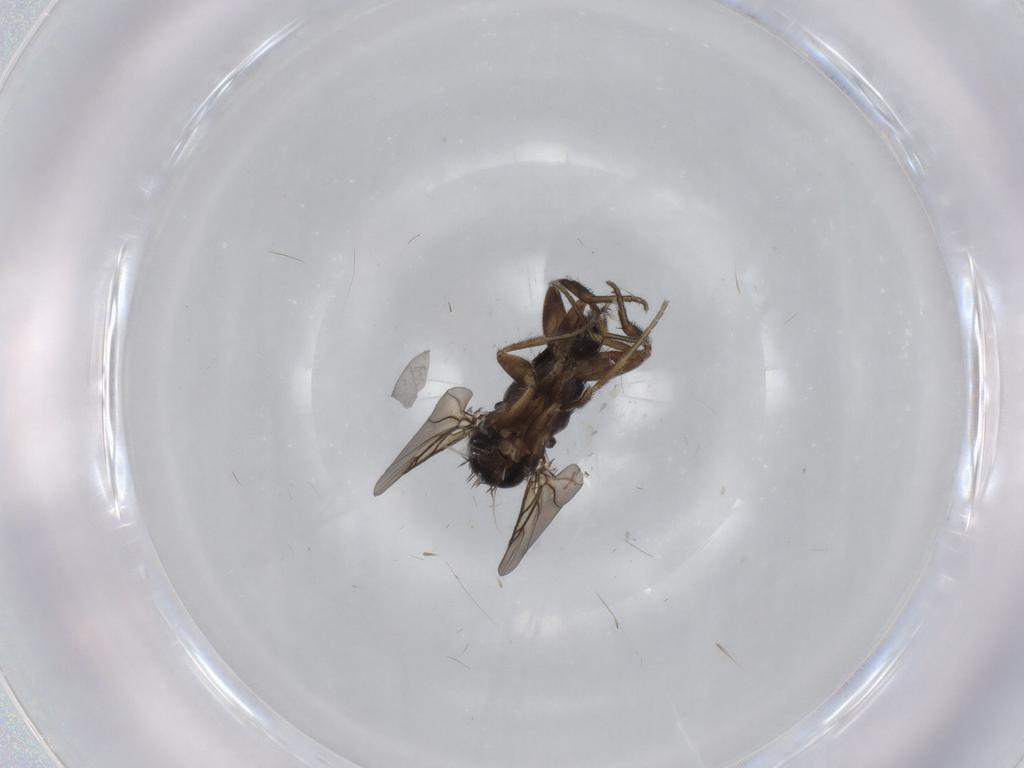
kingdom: Animalia
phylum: Arthropoda
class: Insecta
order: Diptera
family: Phoridae
